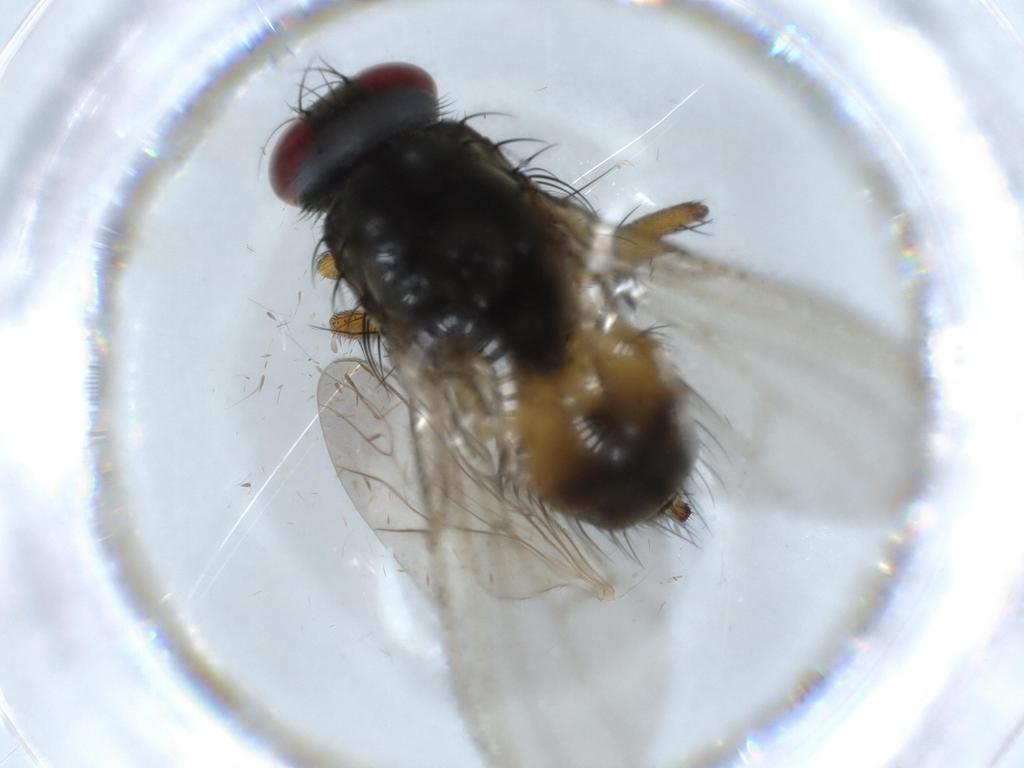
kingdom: Animalia
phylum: Arthropoda
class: Insecta
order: Diptera
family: Muscidae
